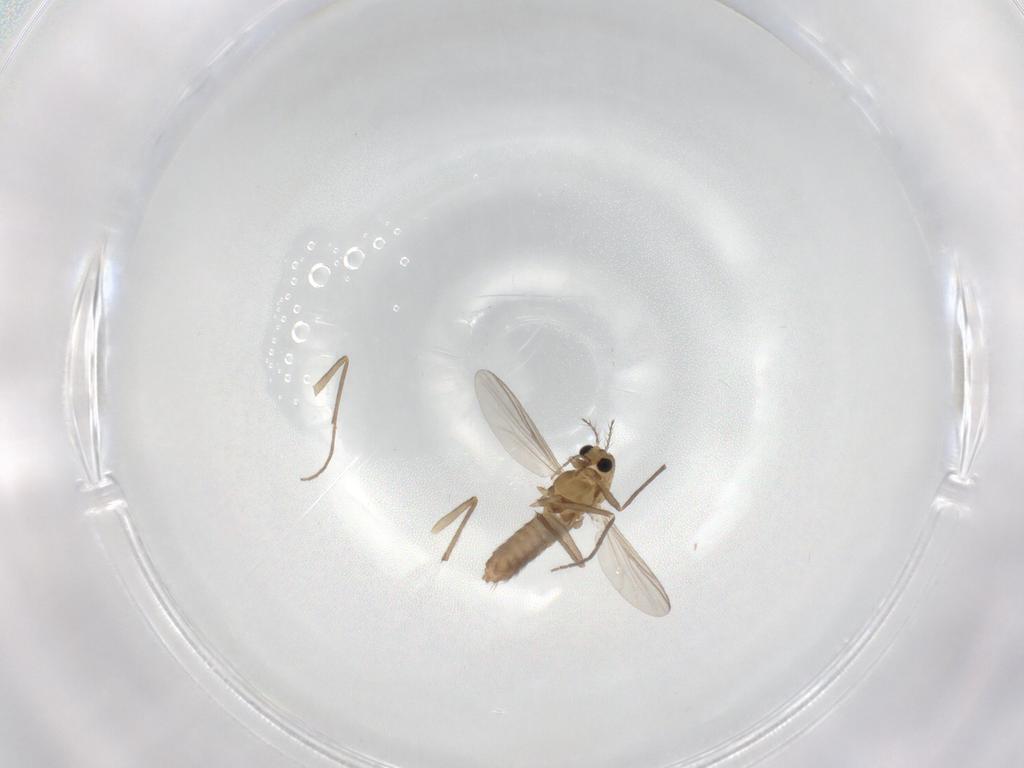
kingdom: Animalia
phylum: Arthropoda
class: Insecta
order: Diptera
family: Chironomidae
